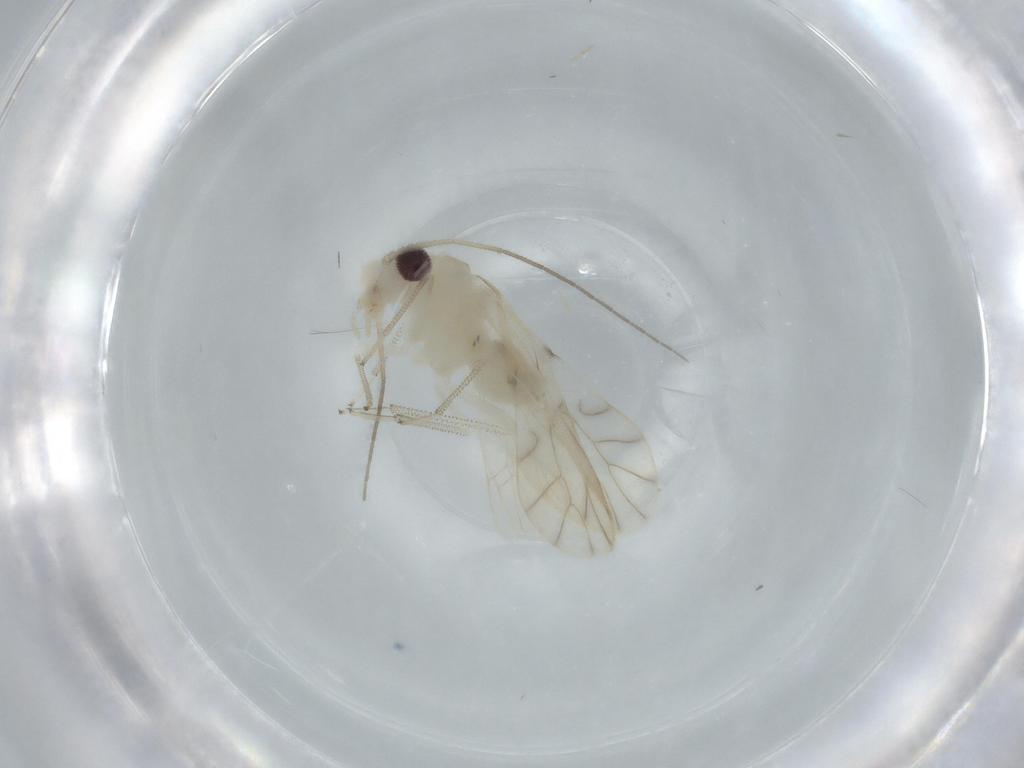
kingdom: Animalia
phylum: Arthropoda
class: Insecta
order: Psocodea
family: Caeciliusidae
